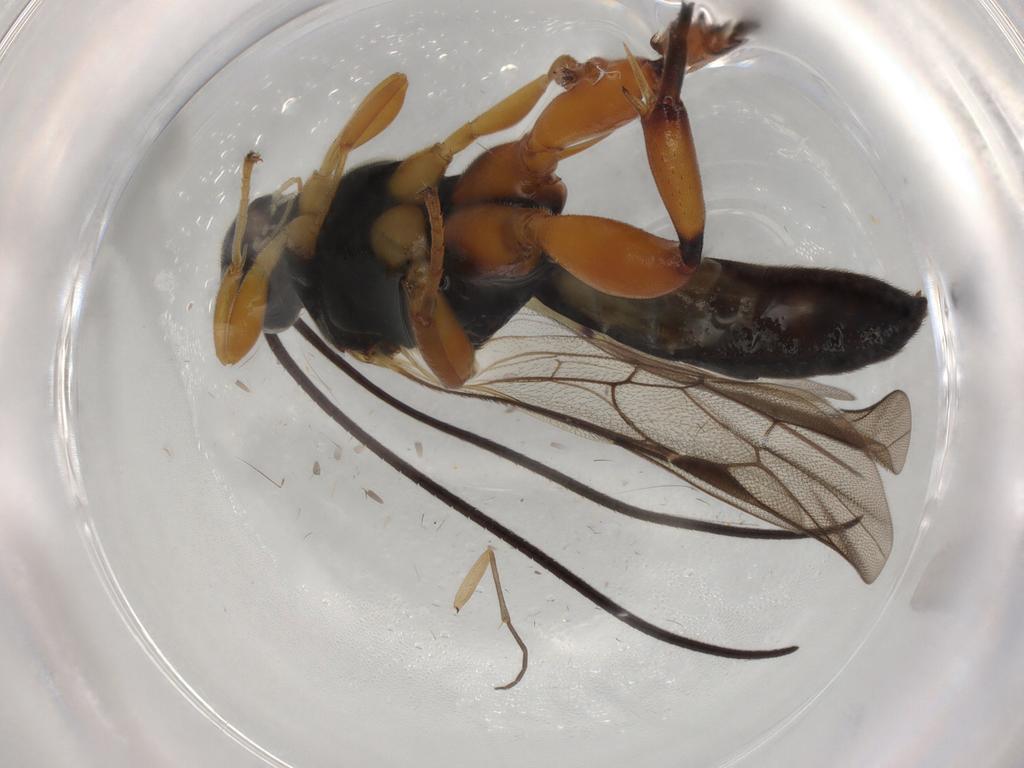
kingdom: Animalia
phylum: Arthropoda
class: Insecta
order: Hymenoptera
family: Ichneumonidae
